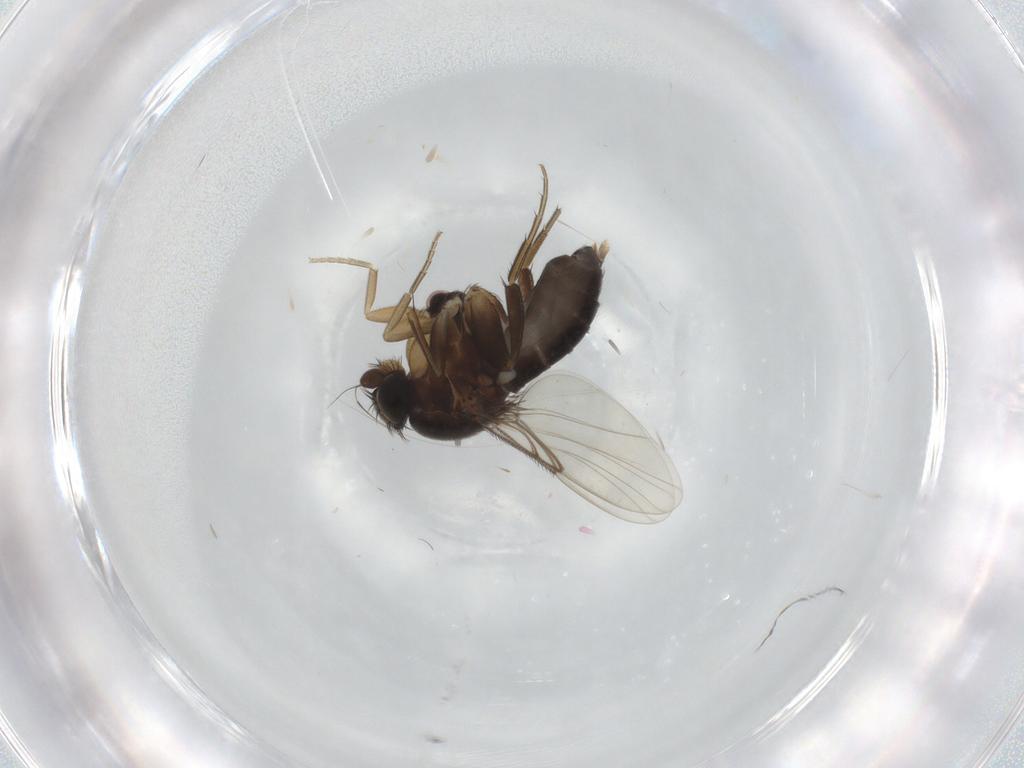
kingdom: Animalia
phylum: Arthropoda
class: Insecta
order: Diptera
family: Phoridae
